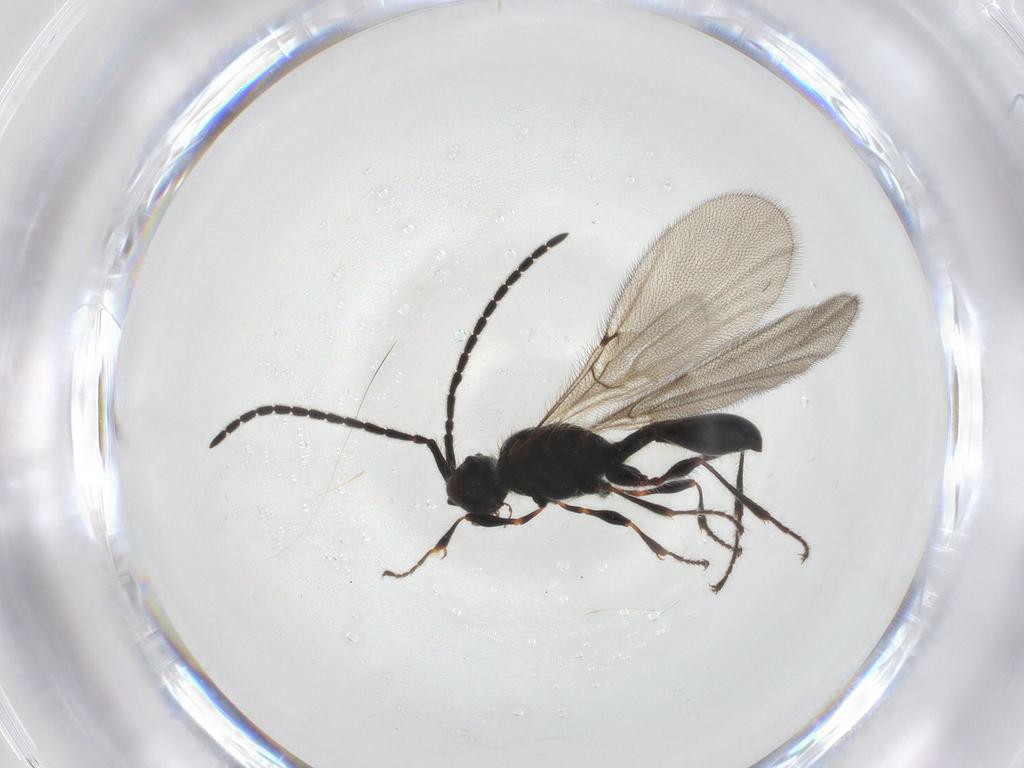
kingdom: Animalia
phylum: Arthropoda
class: Insecta
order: Hymenoptera
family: Diapriidae
